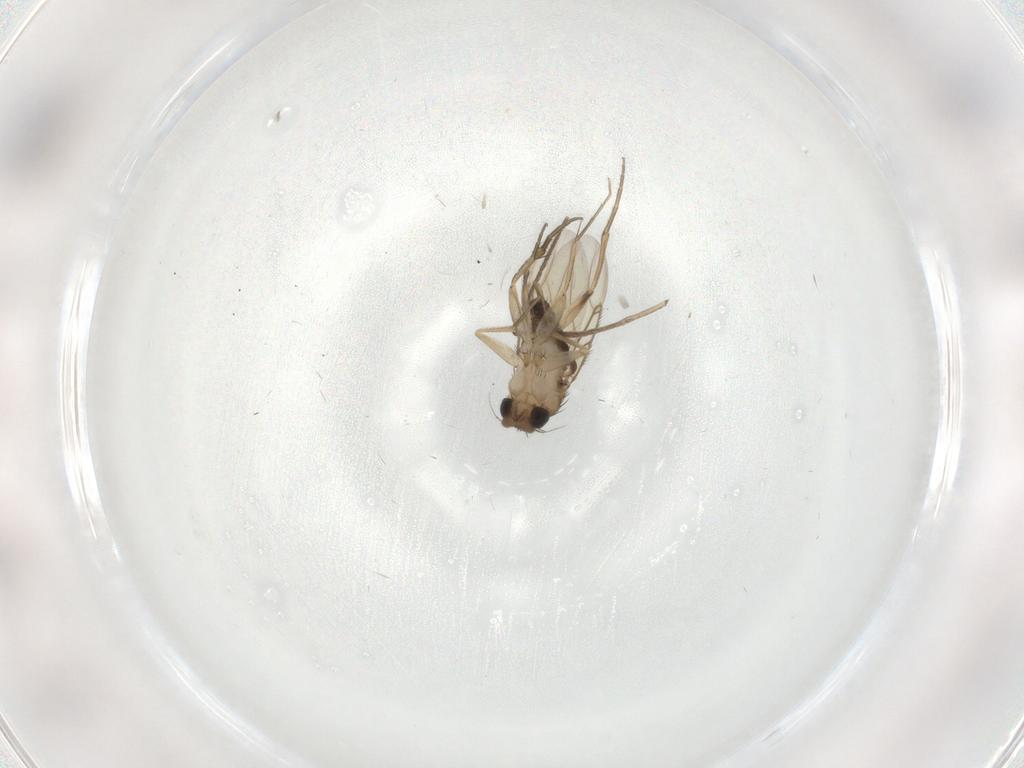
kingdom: Animalia
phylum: Arthropoda
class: Insecta
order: Diptera
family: Phoridae
